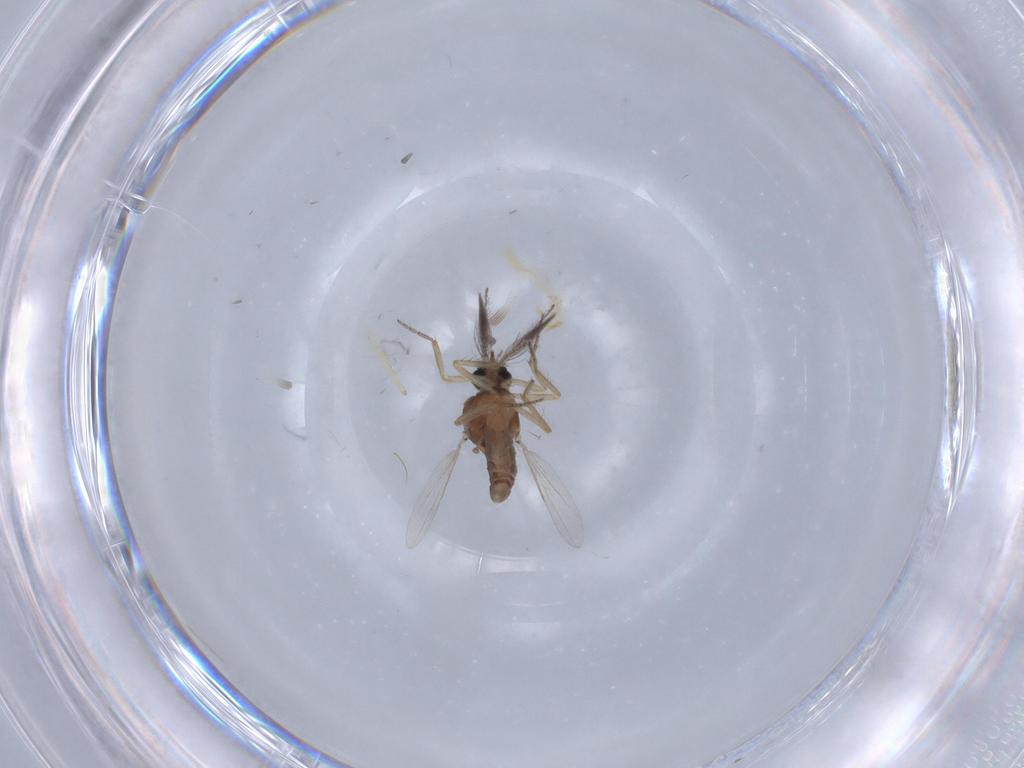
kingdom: Animalia
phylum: Arthropoda
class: Insecta
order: Diptera
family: Ceratopogonidae
